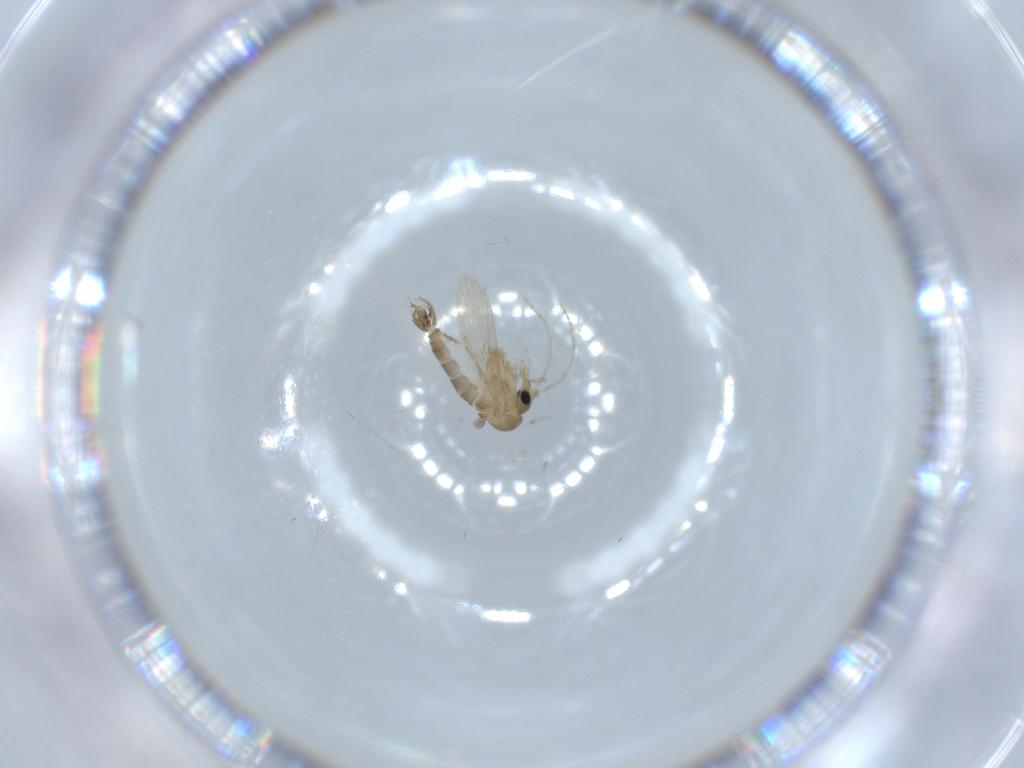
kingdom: Animalia
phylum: Arthropoda
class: Insecta
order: Diptera
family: Psychodidae
